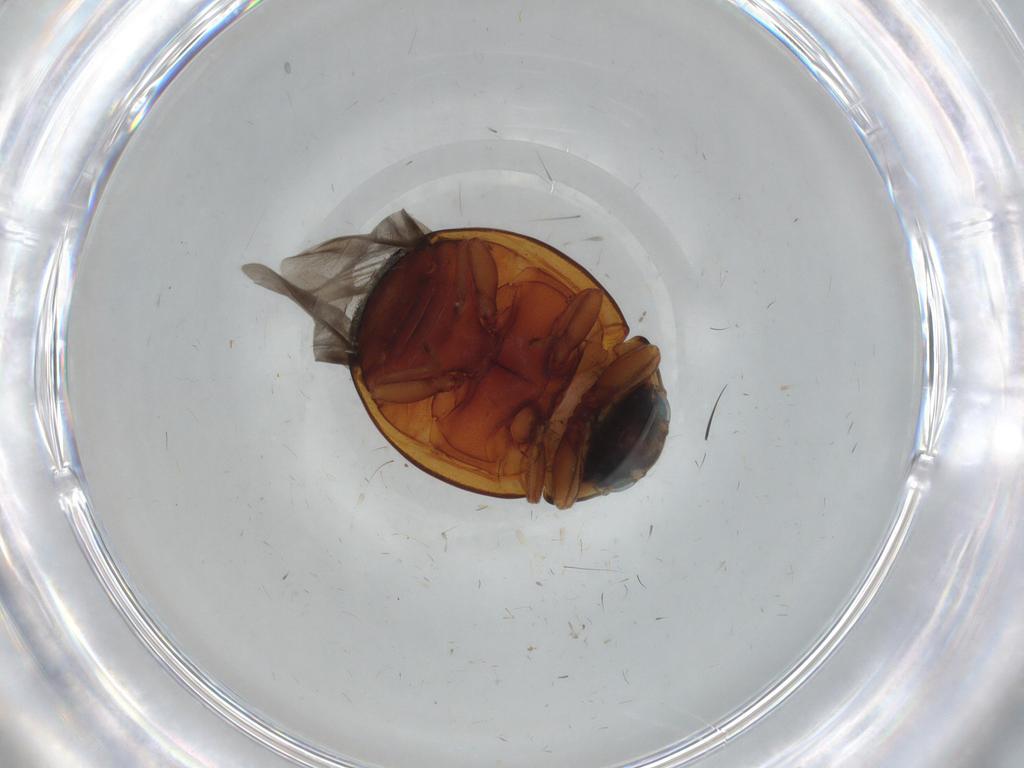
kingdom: Animalia
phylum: Arthropoda
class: Insecta
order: Coleoptera
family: Coccinellidae
